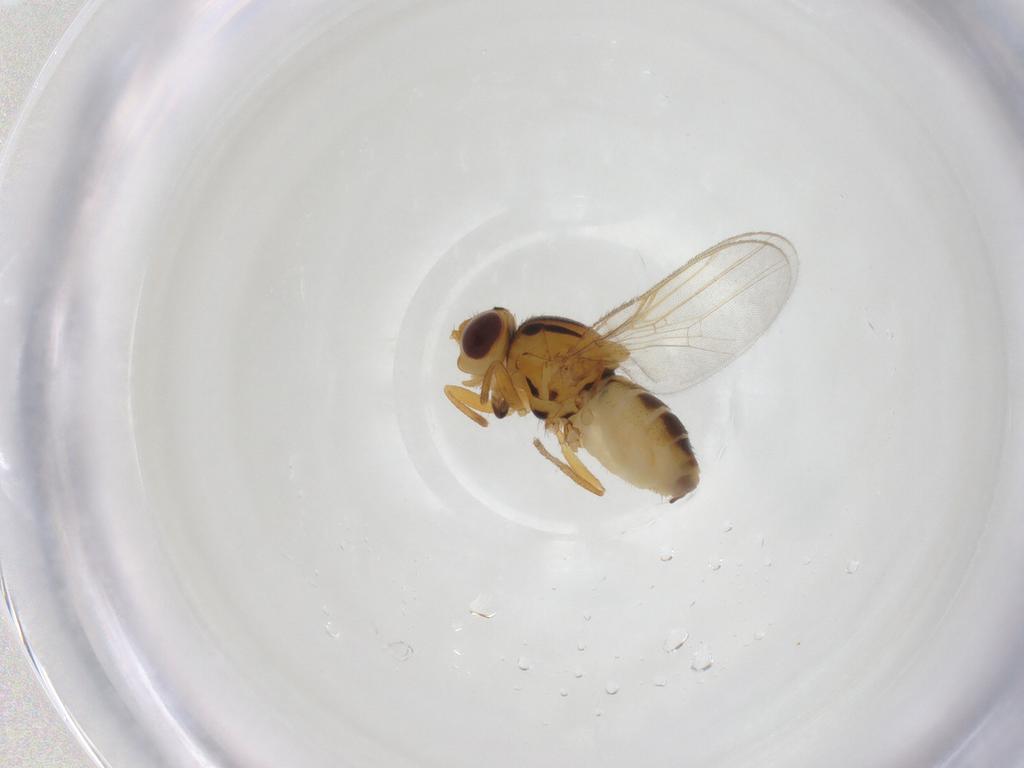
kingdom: Animalia
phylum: Arthropoda
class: Insecta
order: Diptera
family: Chloropidae
